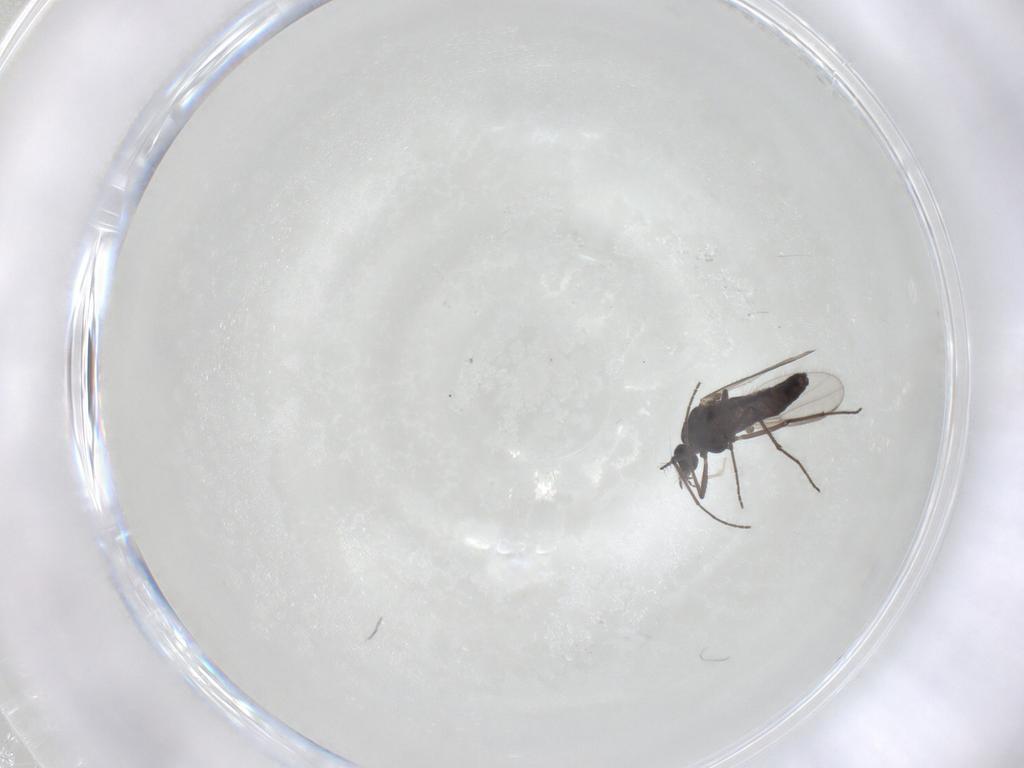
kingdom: Animalia
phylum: Arthropoda
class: Insecta
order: Diptera
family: Chironomidae
